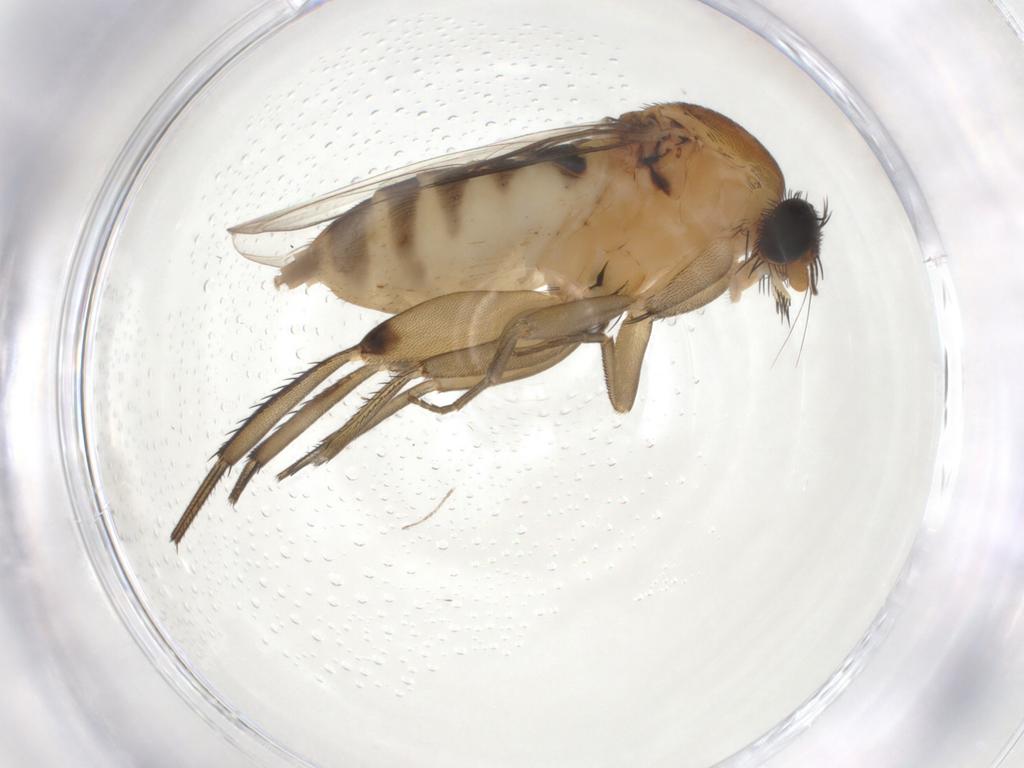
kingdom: Animalia
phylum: Arthropoda
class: Insecta
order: Diptera
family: Phoridae
